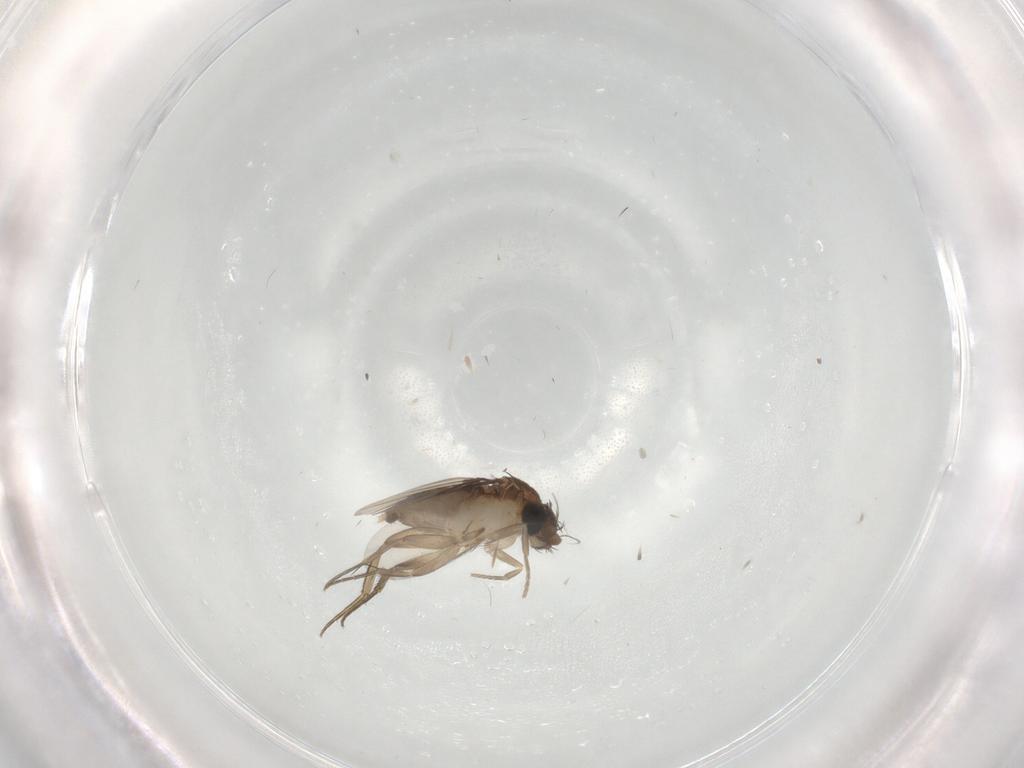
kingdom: Animalia
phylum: Arthropoda
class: Insecta
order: Diptera
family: Phoridae
